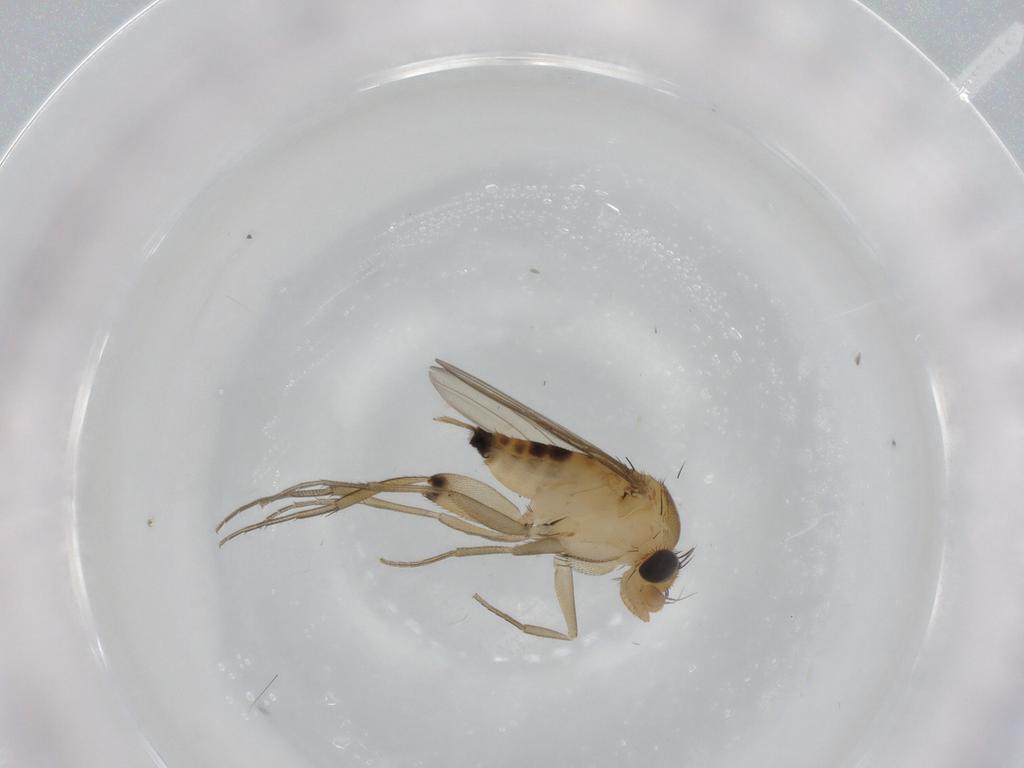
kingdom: Animalia
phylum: Arthropoda
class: Insecta
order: Diptera
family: Phoridae
